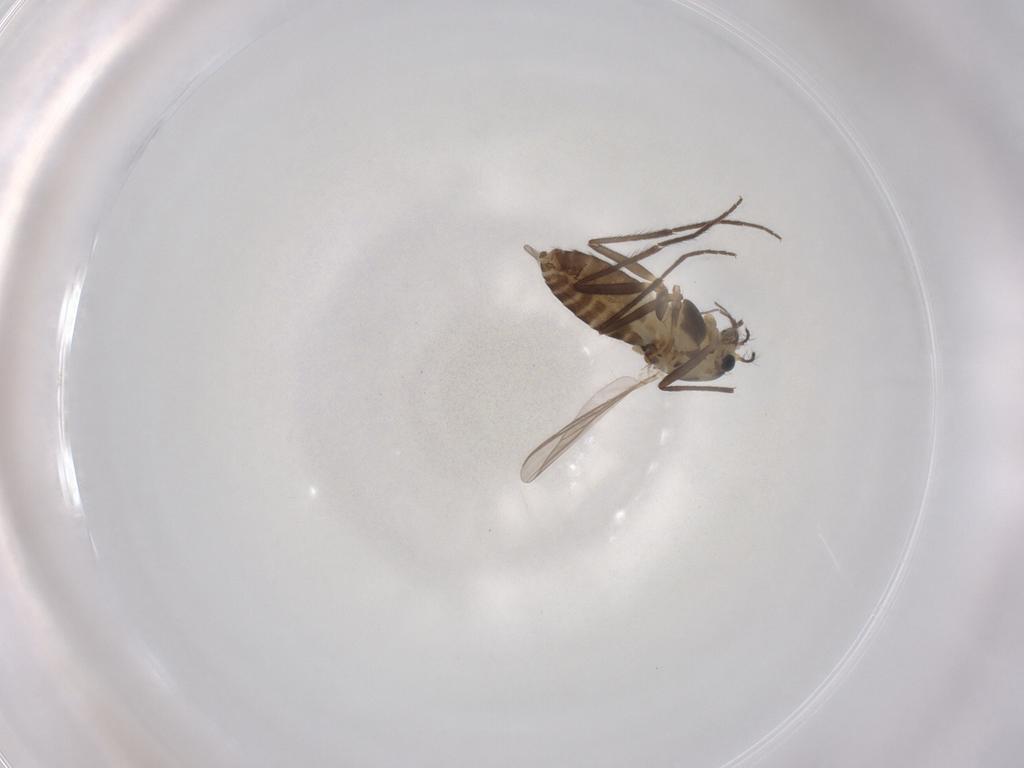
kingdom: Animalia
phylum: Arthropoda
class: Insecta
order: Diptera
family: Chironomidae
